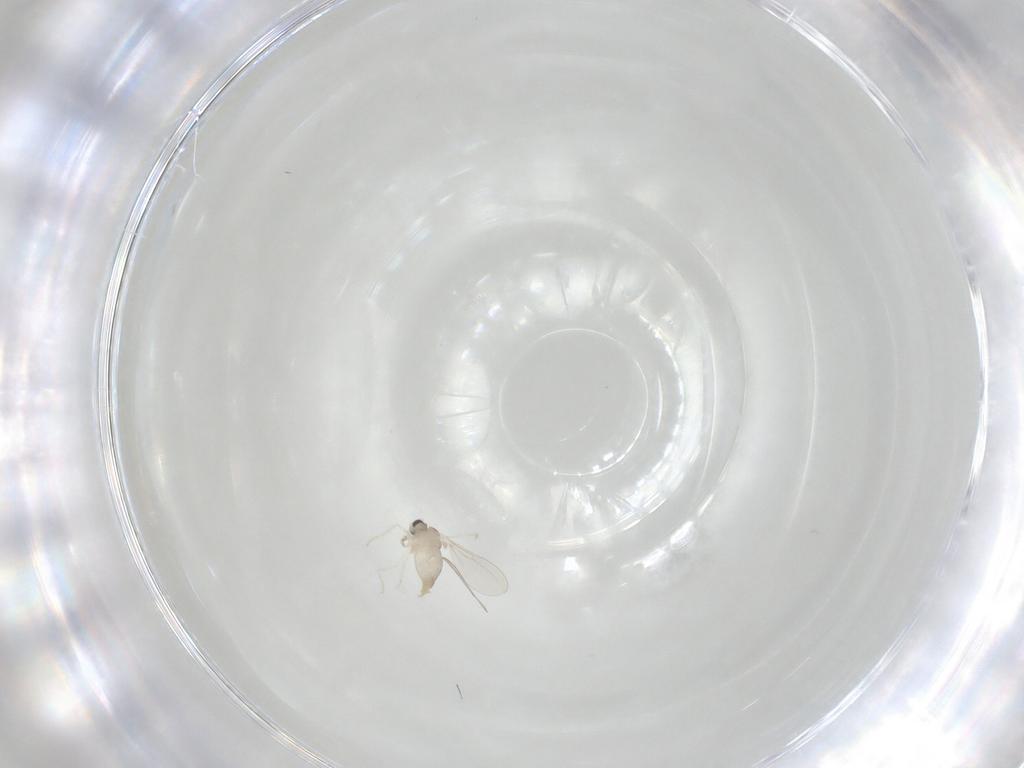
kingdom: Animalia
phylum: Arthropoda
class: Insecta
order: Diptera
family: Cecidomyiidae
